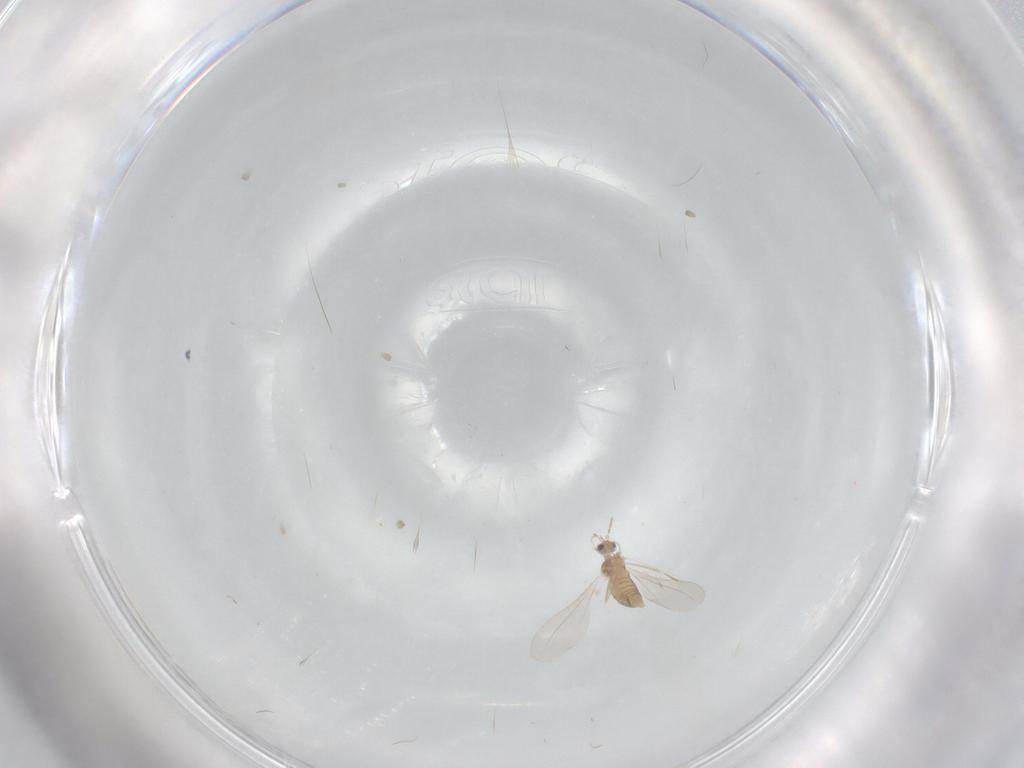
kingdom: Animalia
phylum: Arthropoda
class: Insecta
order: Diptera
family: Cecidomyiidae
